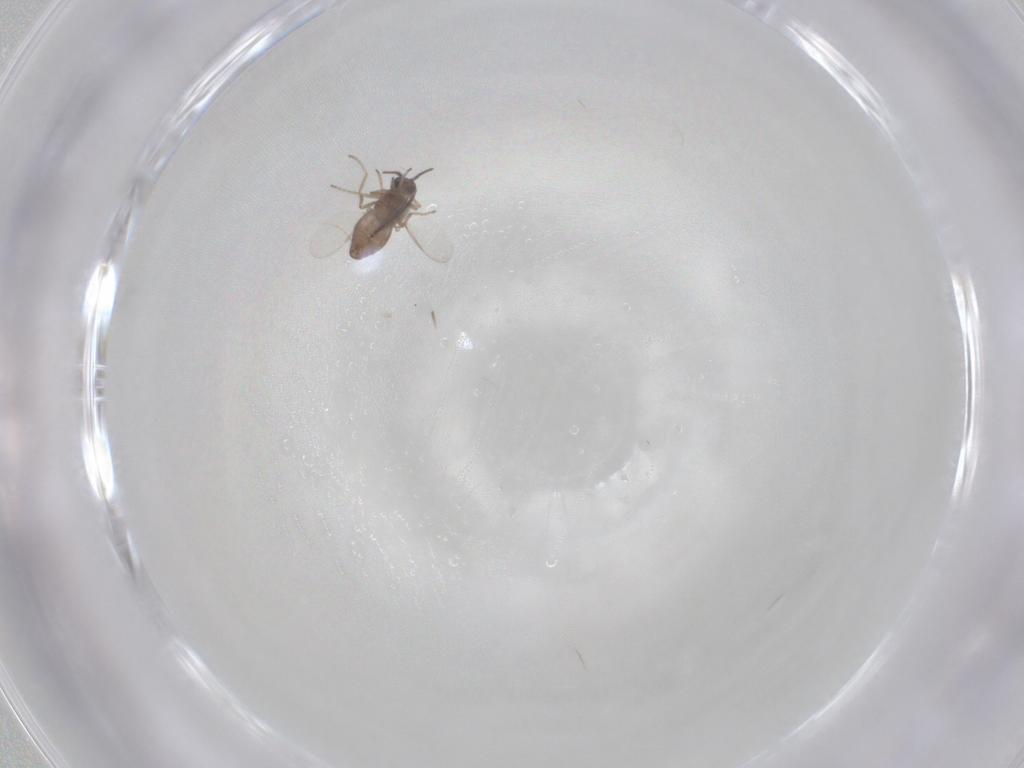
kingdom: Animalia
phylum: Arthropoda
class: Insecta
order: Diptera
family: Ceratopogonidae
